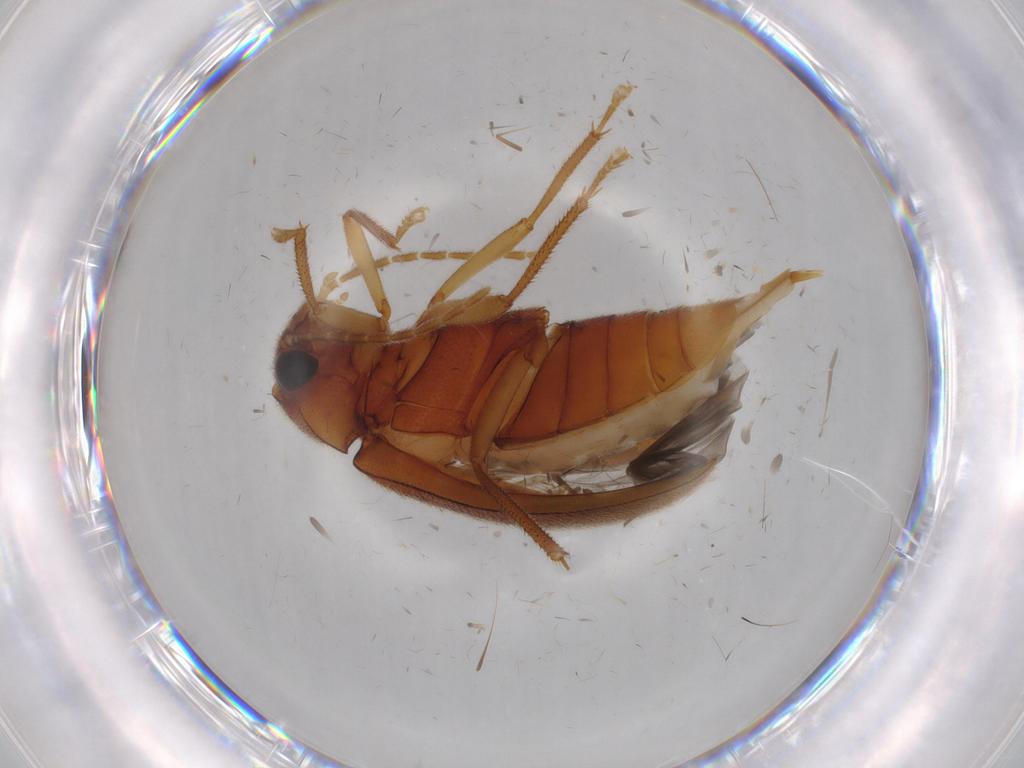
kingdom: Animalia
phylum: Arthropoda
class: Insecta
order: Coleoptera
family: Ptilodactylidae
